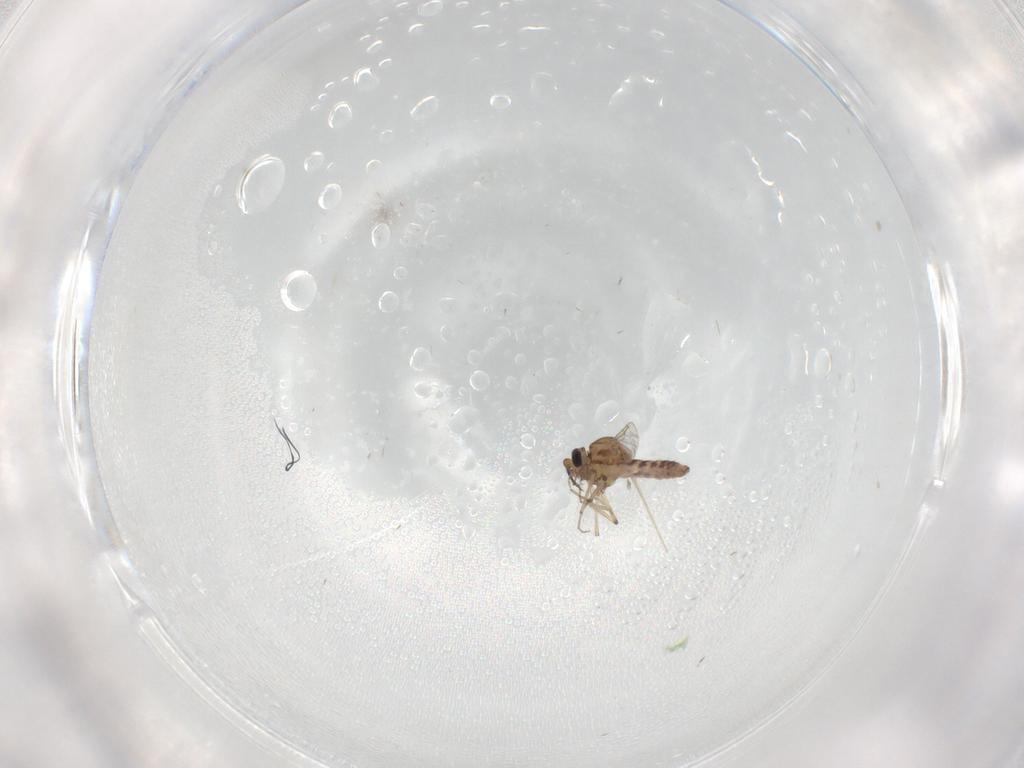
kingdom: Animalia
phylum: Arthropoda
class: Insecta
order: Diptera
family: Ceratopogonidae
